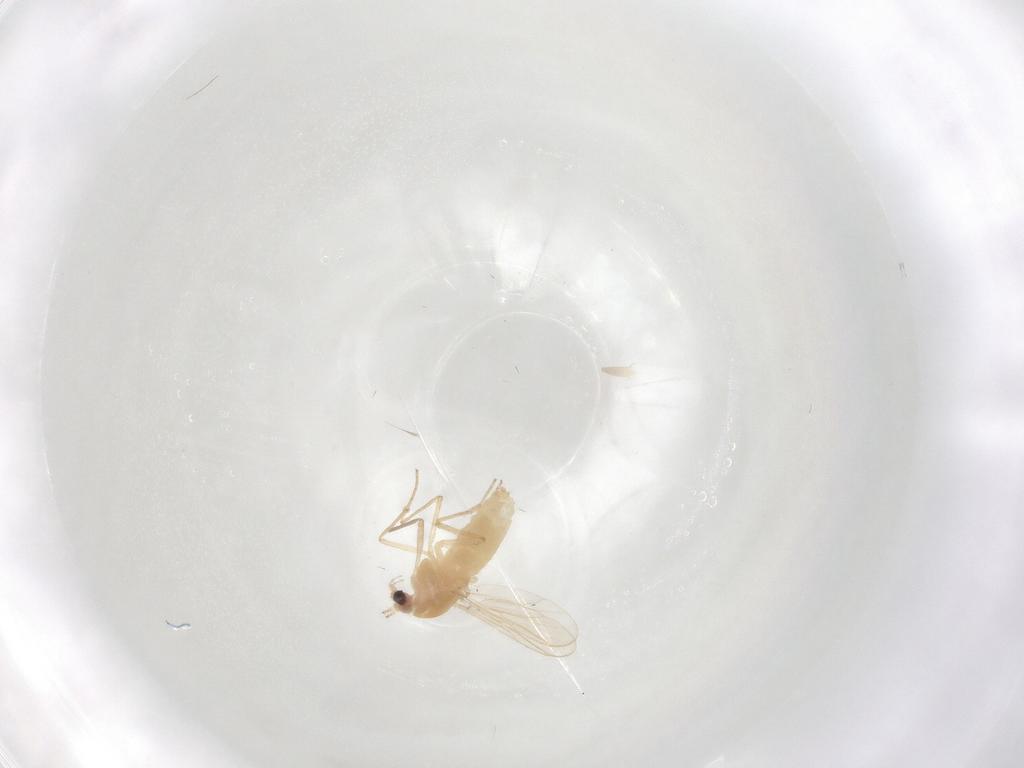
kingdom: Animalia
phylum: Arthropoda
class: Insecta
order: Diptera
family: Chironomidae
